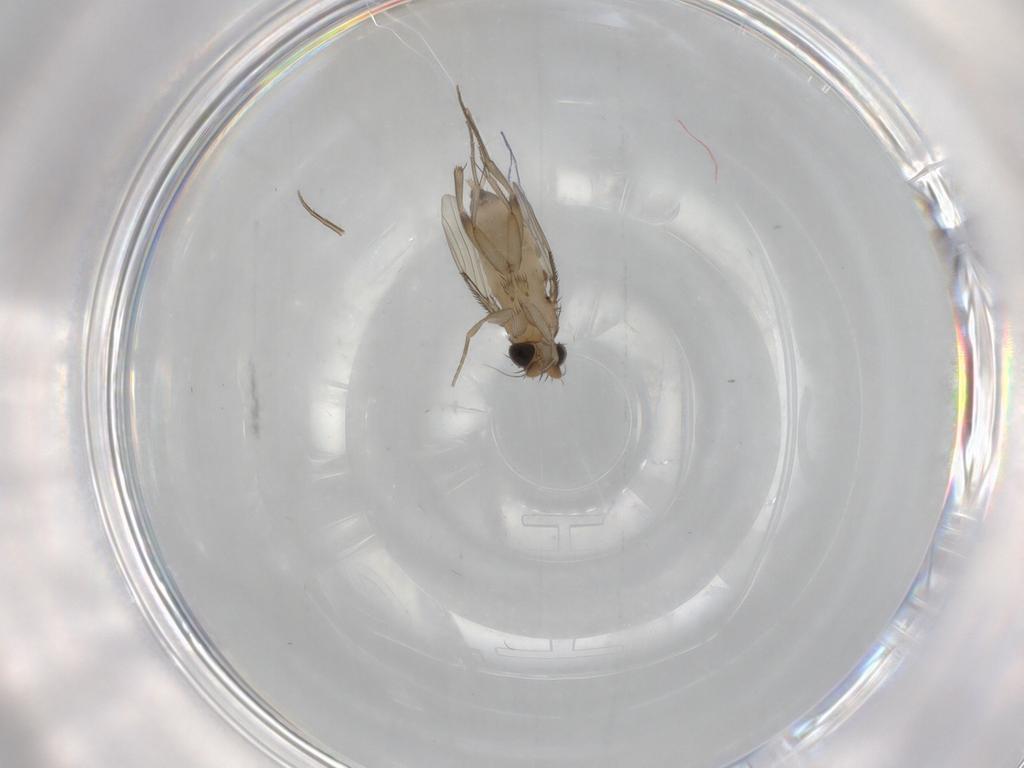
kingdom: Animalia
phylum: Arthropoda
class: Insecta
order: Diptera
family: Phoridae
